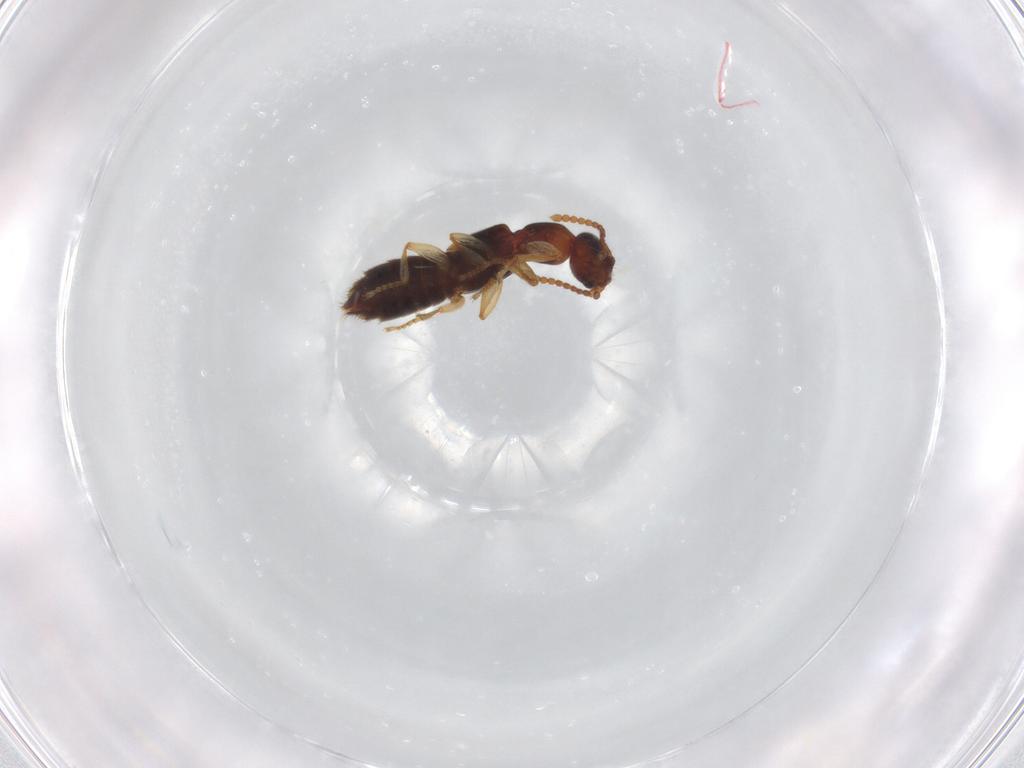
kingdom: Animalia
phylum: Arthropoda
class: Insecta
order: Coleoptera
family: Staphylinidae
